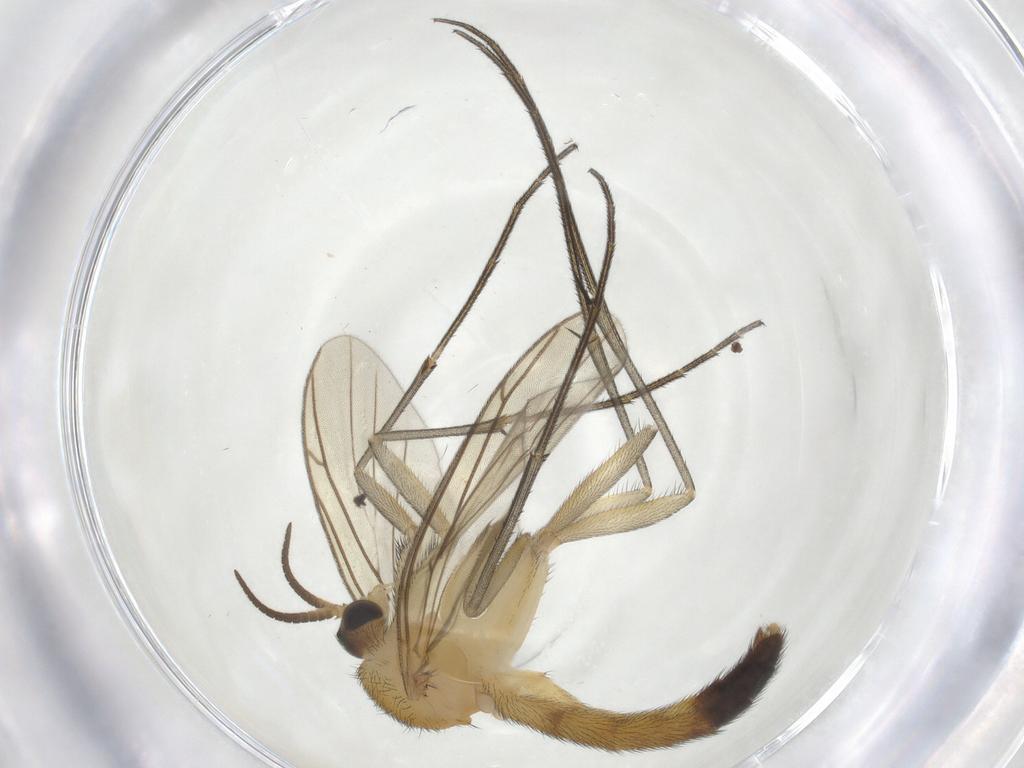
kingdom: Animalia
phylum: Arthropoda
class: Insecta
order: Diptera
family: Keroplatidae
